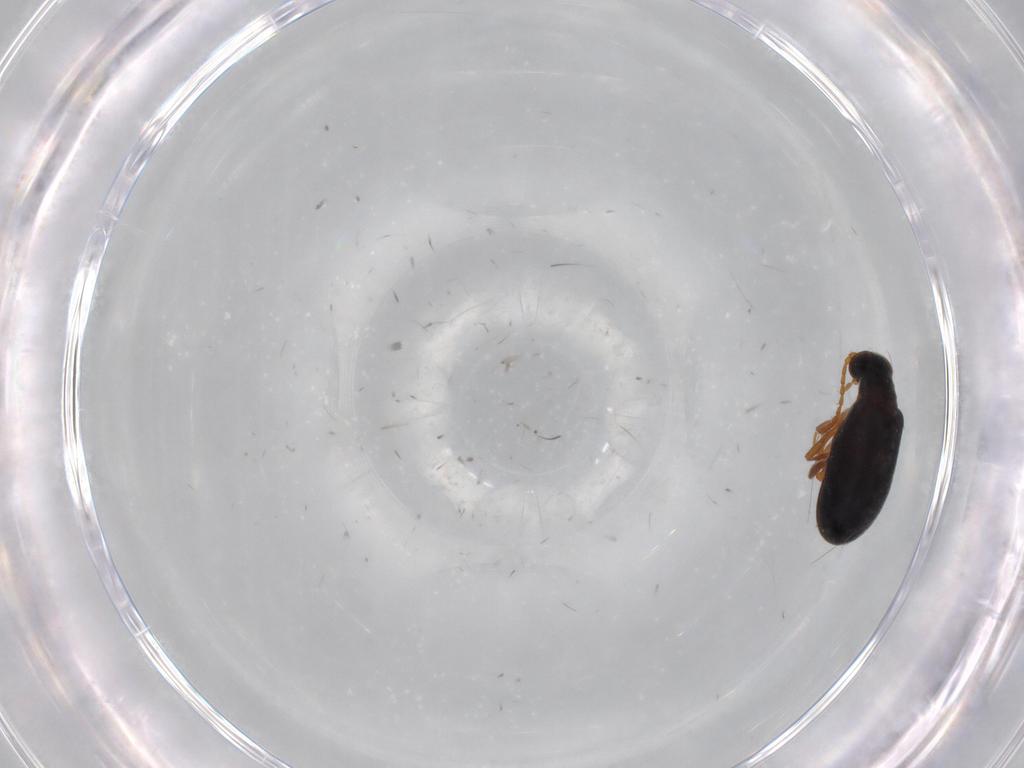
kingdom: Animalia
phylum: Arthropoda
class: Insecta
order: Coleoptera
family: Aderidae
